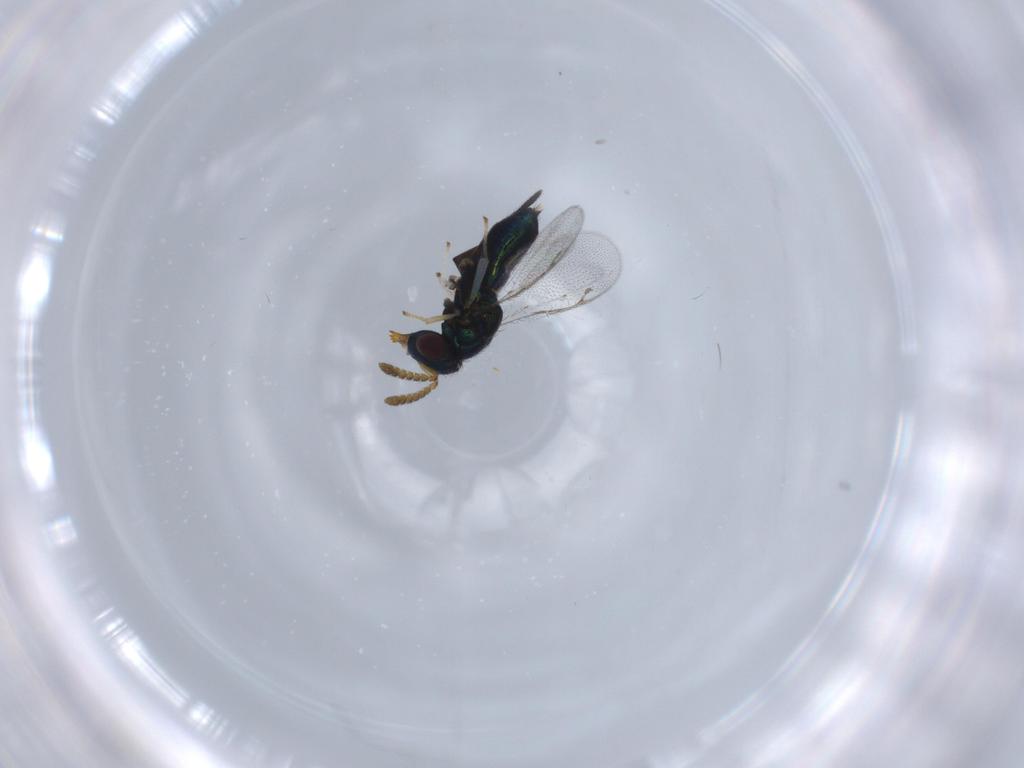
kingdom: Animalia
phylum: Arthropoda
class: Insecta
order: Hymenoptera
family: Pirenidae
